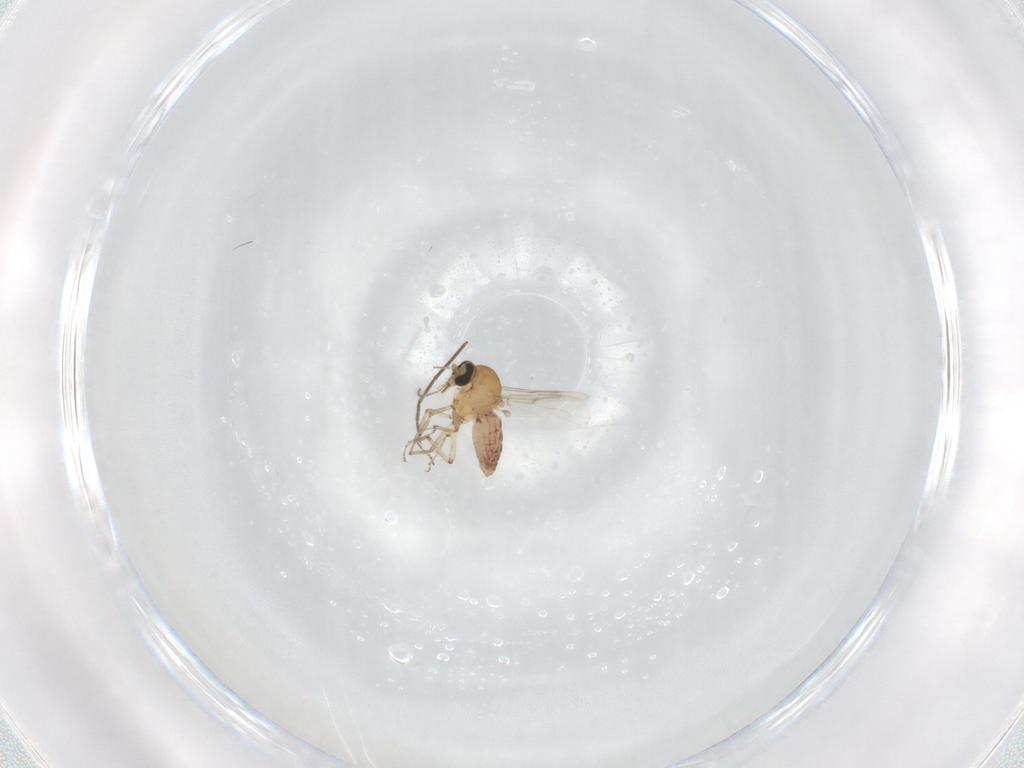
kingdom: Animalia
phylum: Arthropoda
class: Insecta
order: Diptera
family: Ceratopogonidae
